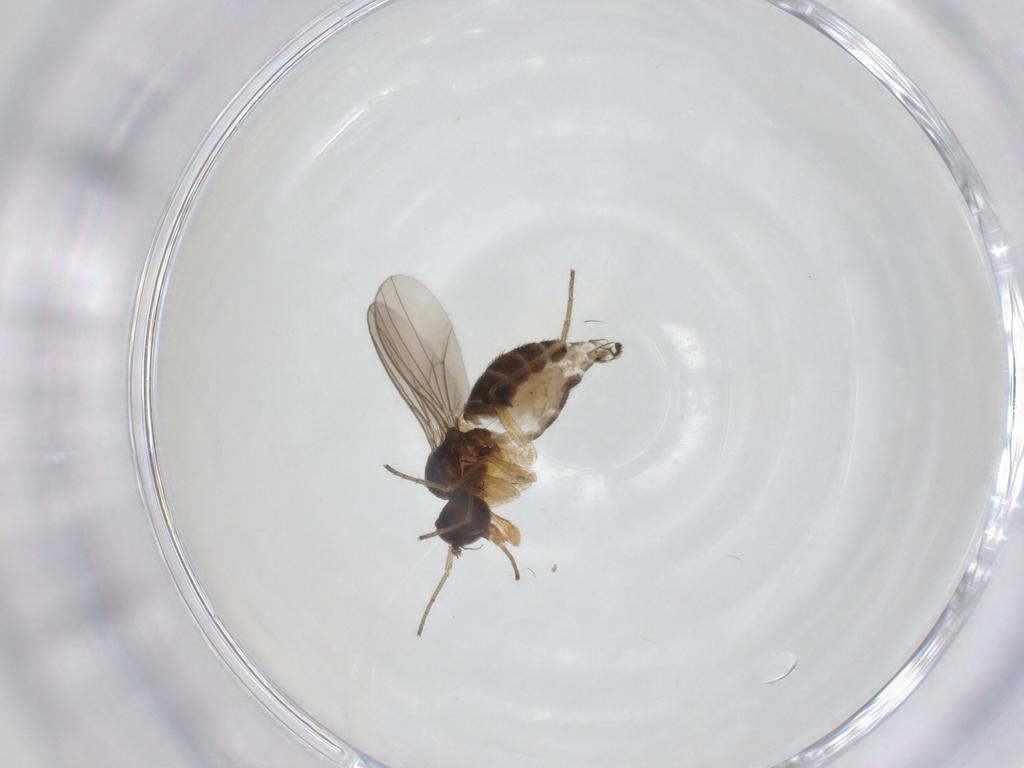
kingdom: Animalia
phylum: Arthropoda
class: Insecta
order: Diptera
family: Dolichopodidae
